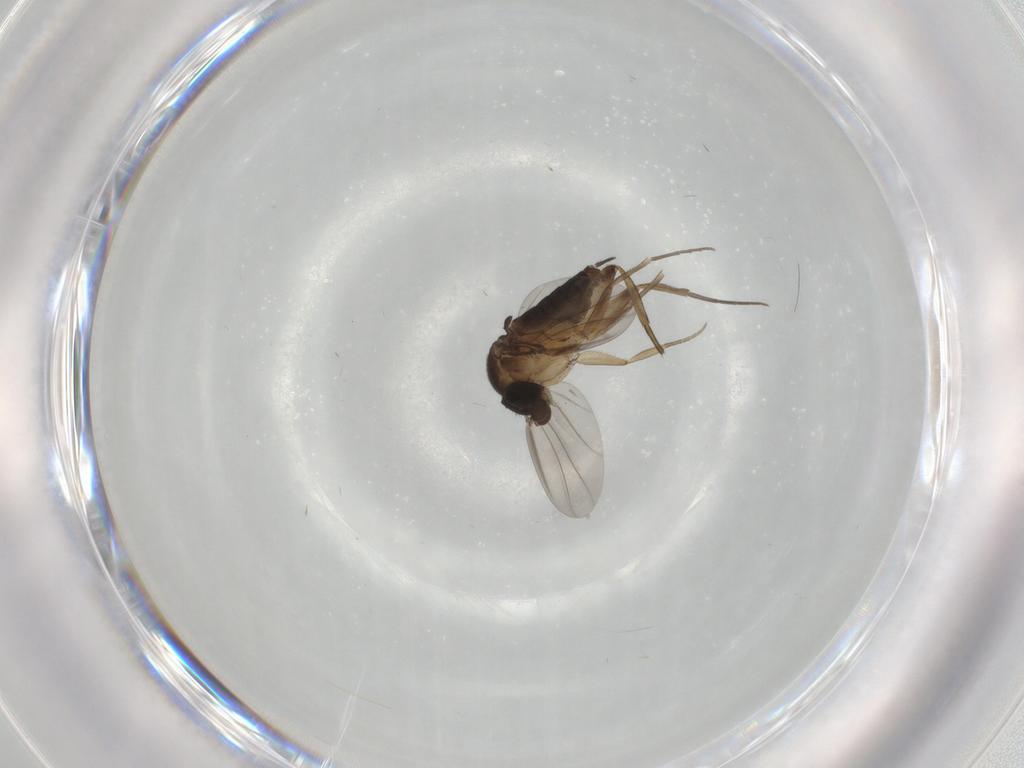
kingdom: Animalia
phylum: Arthropoda
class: Insecta
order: Diptera
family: Phoridae
